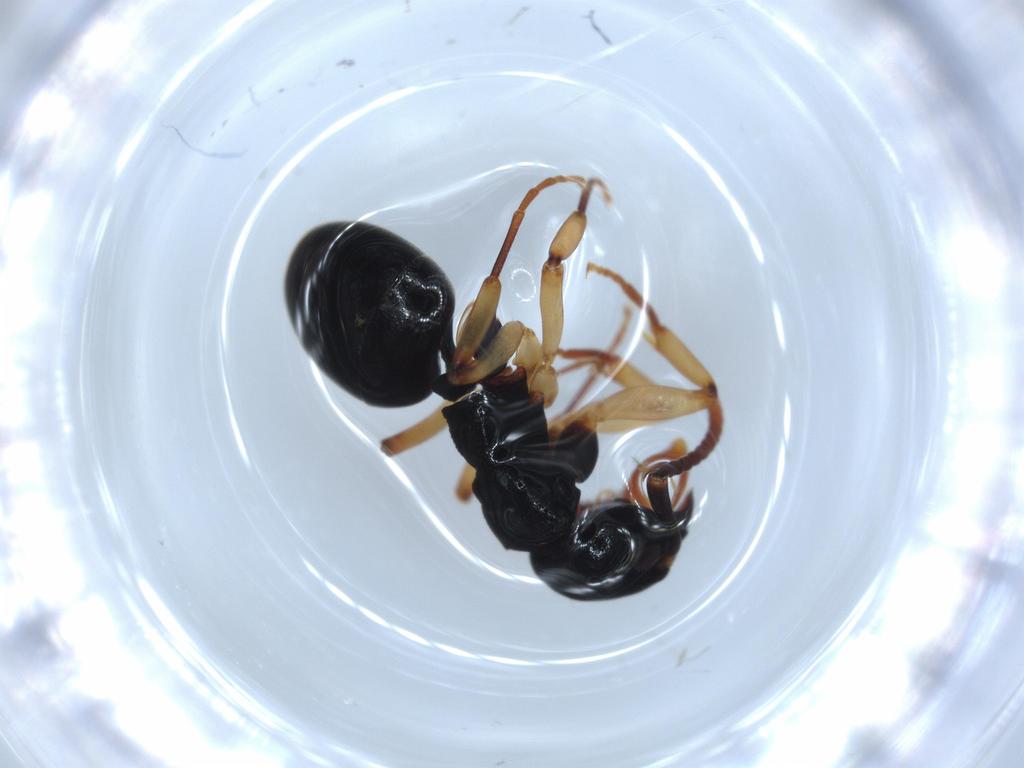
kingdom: Animalia
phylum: Arthropoda
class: Insecta
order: Hymenoptera
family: Formicidae
